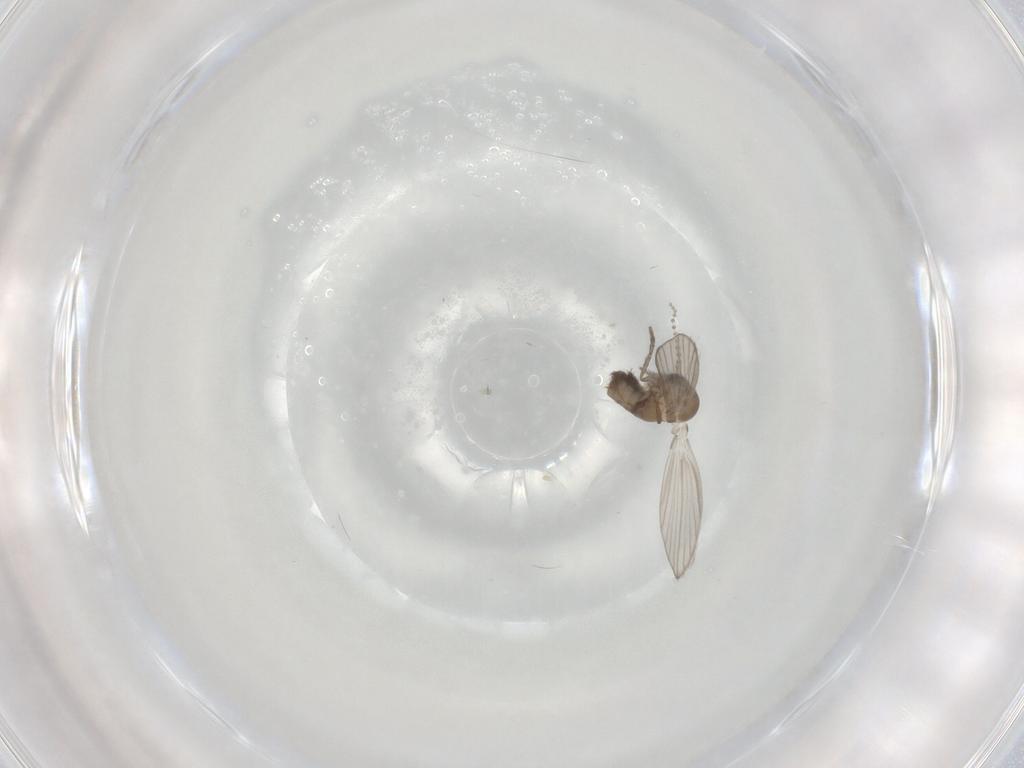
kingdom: Animalia
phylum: Arthropoda
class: Insecta
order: Diptera
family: Psychodidae
